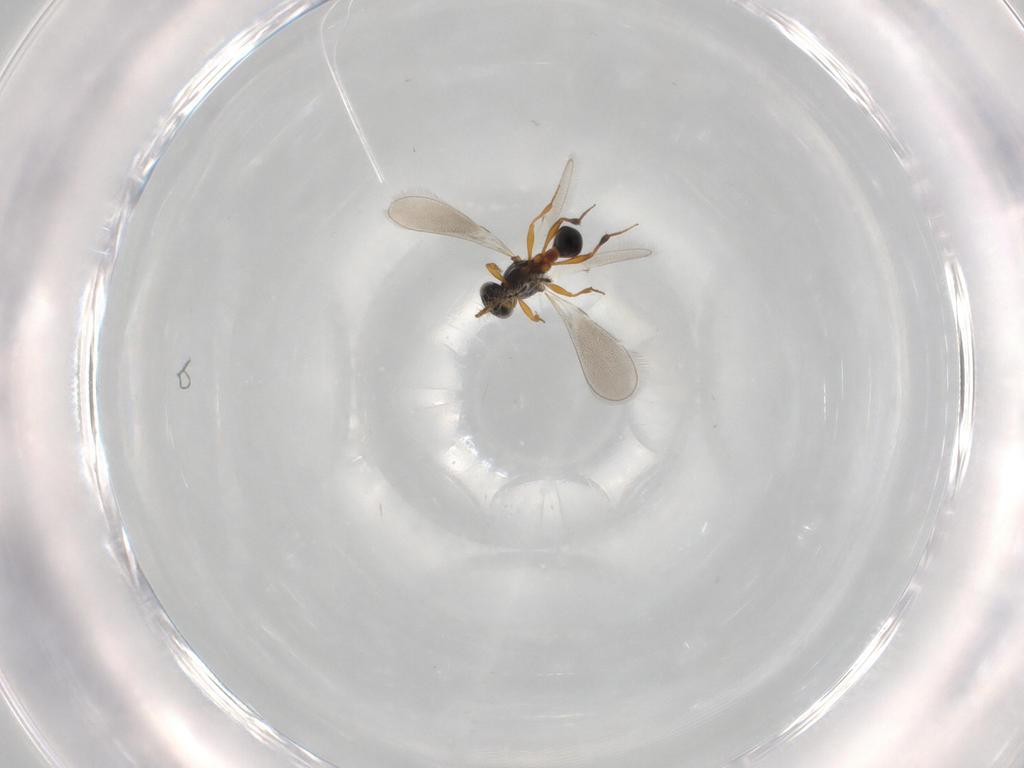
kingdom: Animalia
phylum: Arthropoda
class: Insecta
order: Hymenoptera
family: Platygastridae
